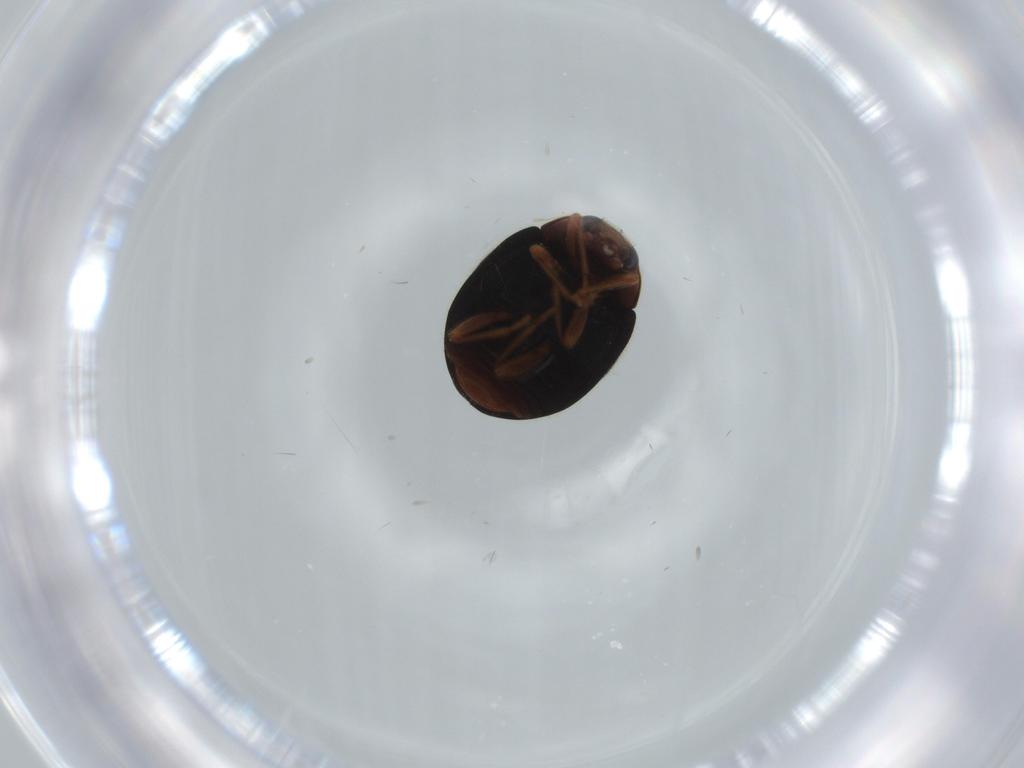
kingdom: Animalia
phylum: Arthropoda
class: Insecta
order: Coleoptera
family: Coccinellidae
